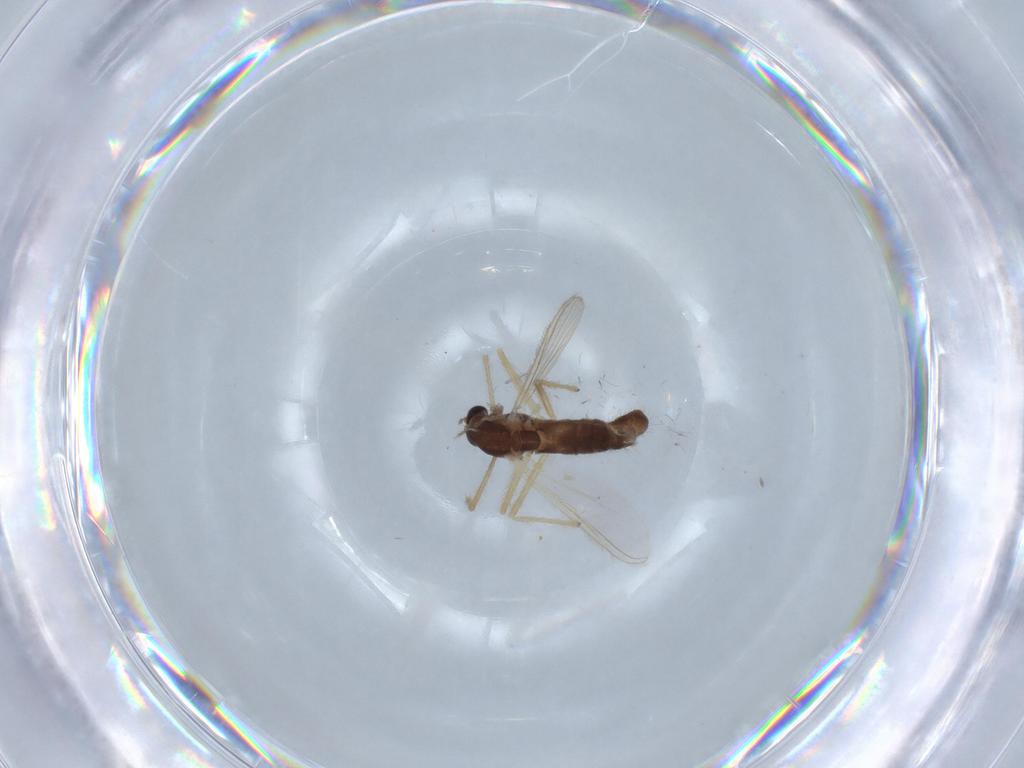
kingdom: Animalia
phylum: Arthropoda
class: Insecta
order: Diptera
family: Chironomidae
